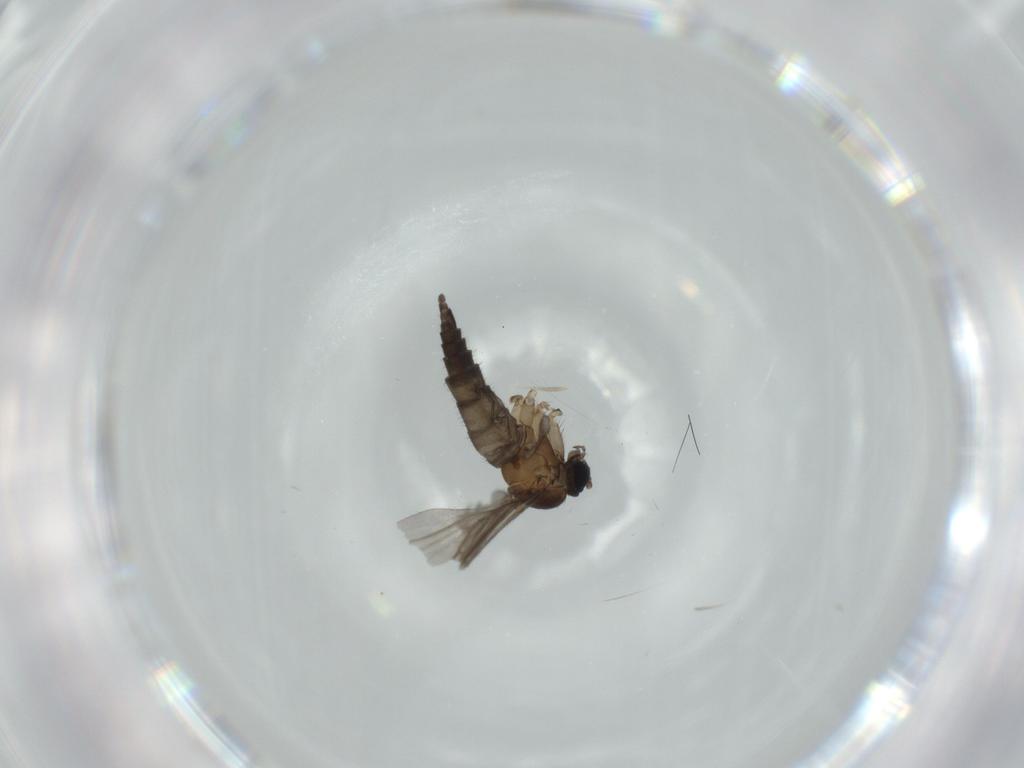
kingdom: Animalia
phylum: Arthropoda
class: Insecta
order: Diptera
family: Sciaridae
